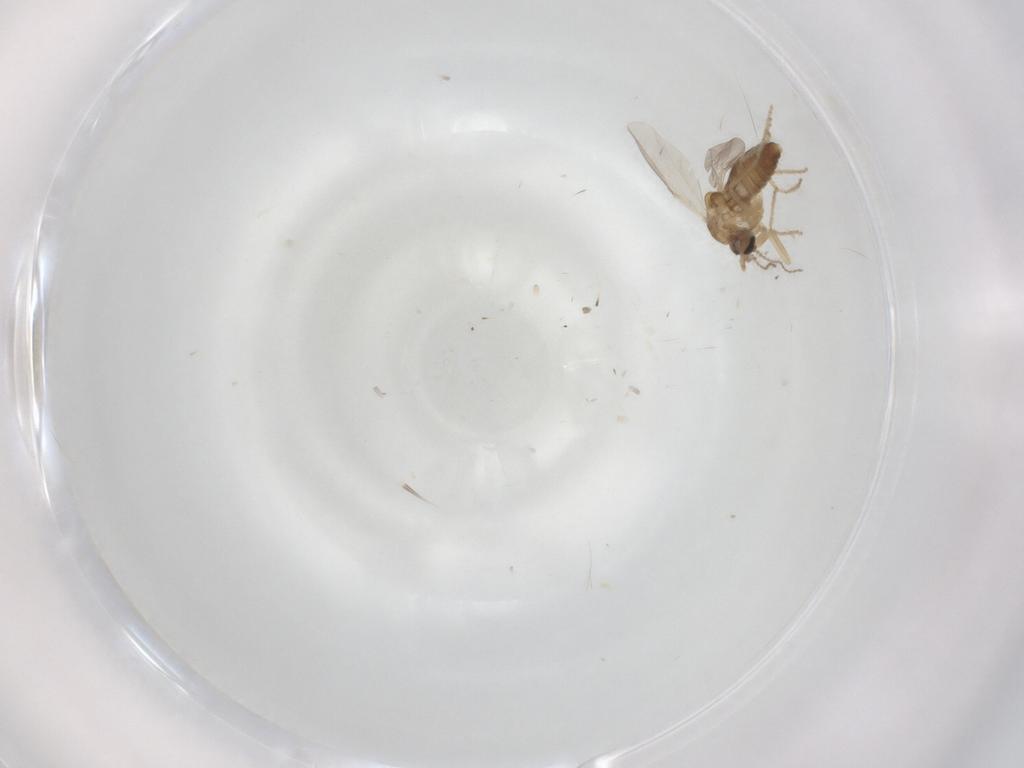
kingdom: Animalia
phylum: Arthropoda
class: Insecta
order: Diptera
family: Ceratopogonidae
